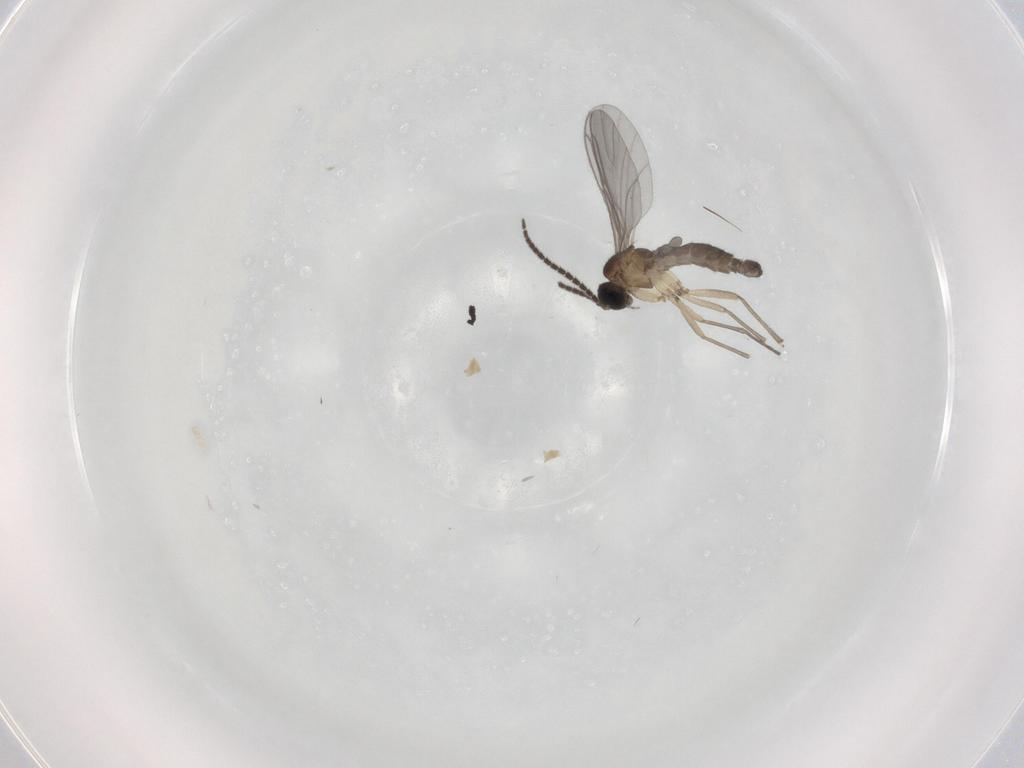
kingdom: Animalia
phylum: Arthropoda
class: Insecta
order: Diptera
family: Sciaridae
